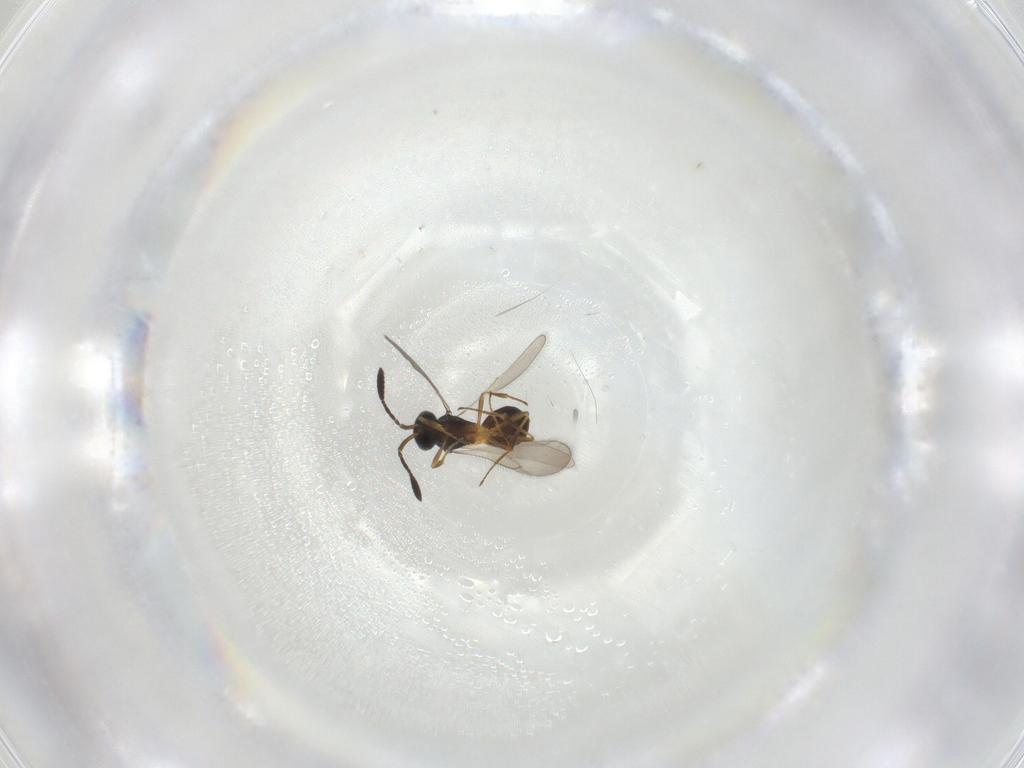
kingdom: Animalia
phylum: Arthropoda
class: Insecta
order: Hymenoptera
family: Scelionidae
